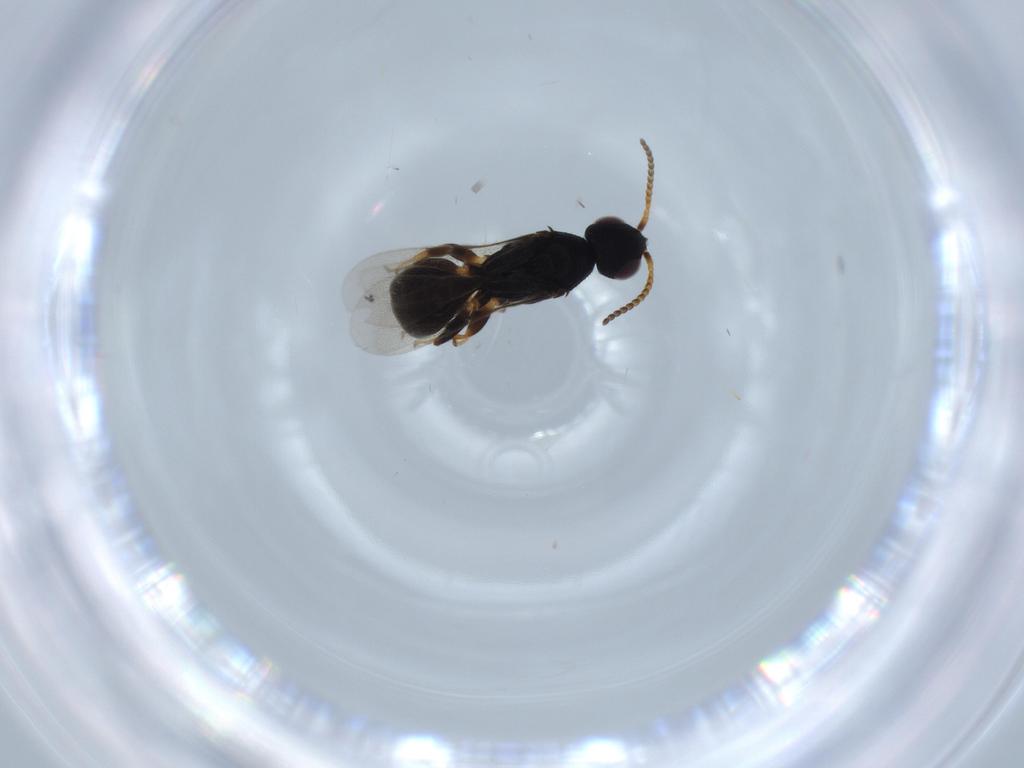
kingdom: Animalia
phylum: Arthropoda
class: Insecta
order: Hymenoptera
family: Bethylidae
